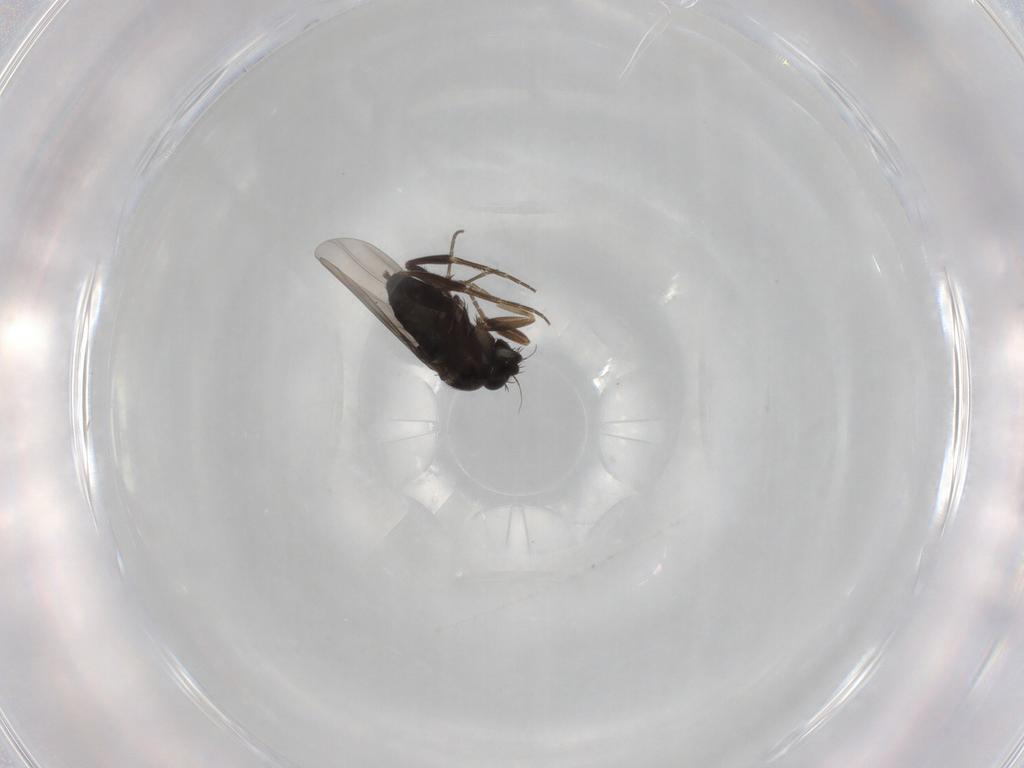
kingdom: Animalia
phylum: Arthropoda
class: Insecta
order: Diptera
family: Phoridae
